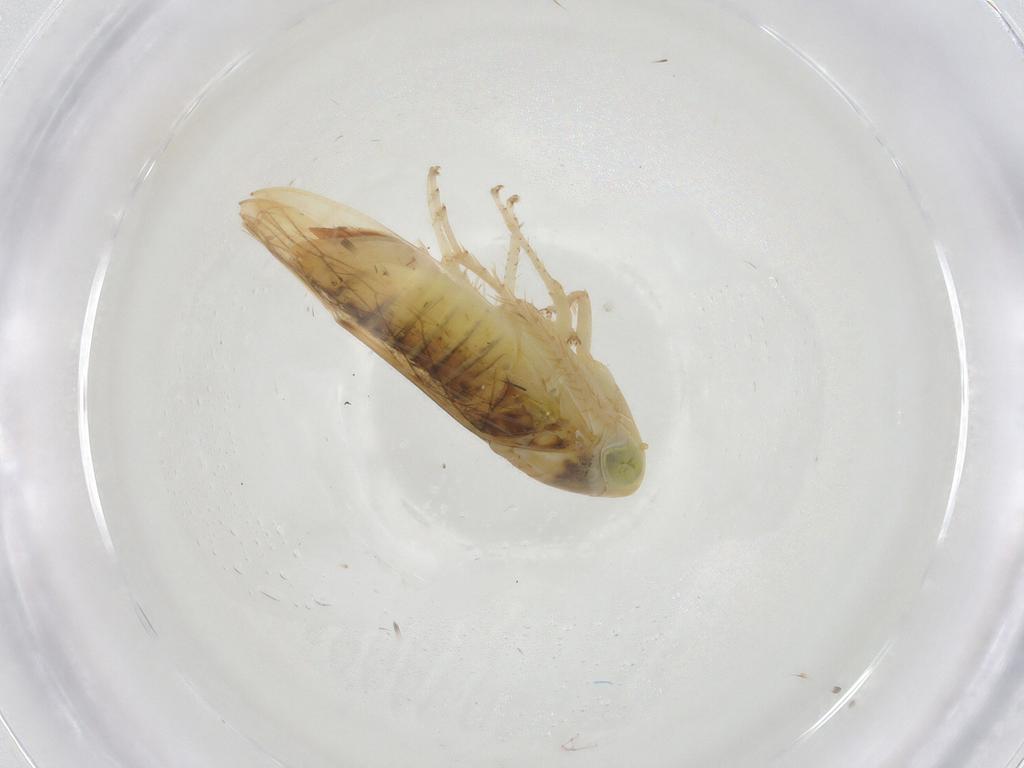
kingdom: Animalia
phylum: Arthropoda
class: Insecta
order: Hemiptera
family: Cicadellidae
